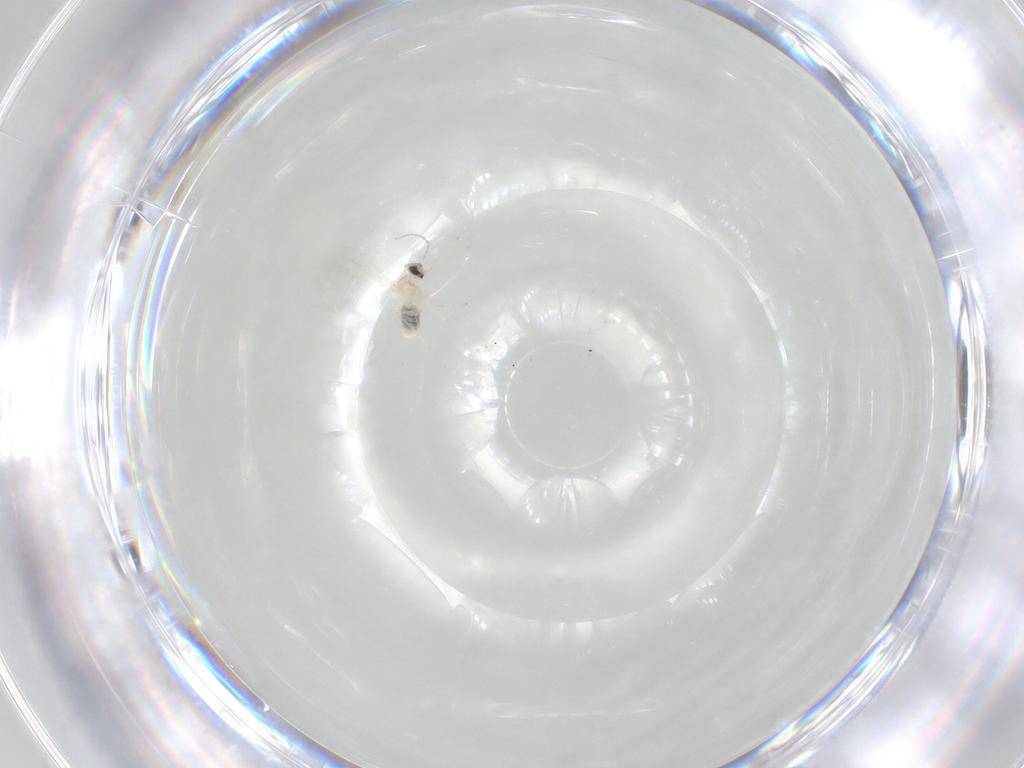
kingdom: Animalia
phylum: Arthropoda
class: Insecta
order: Diptera
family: Cecidomyiidae
